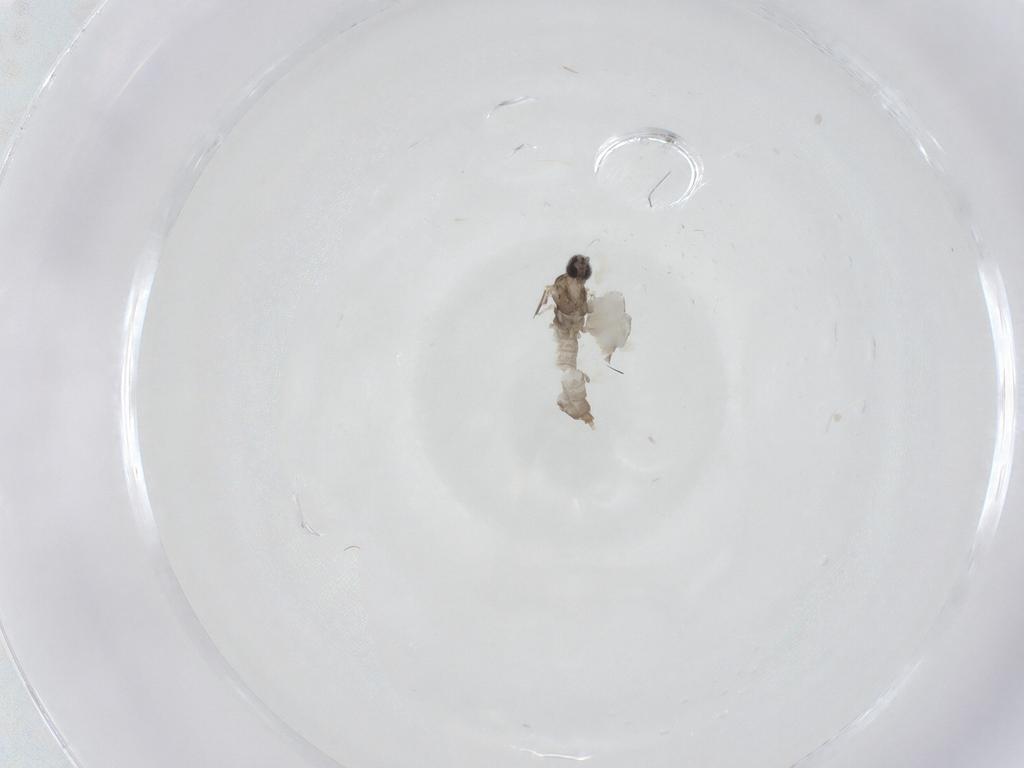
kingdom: Animalia
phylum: Arthropoda
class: Insecta
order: Diptera
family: Cecidomyiidae
